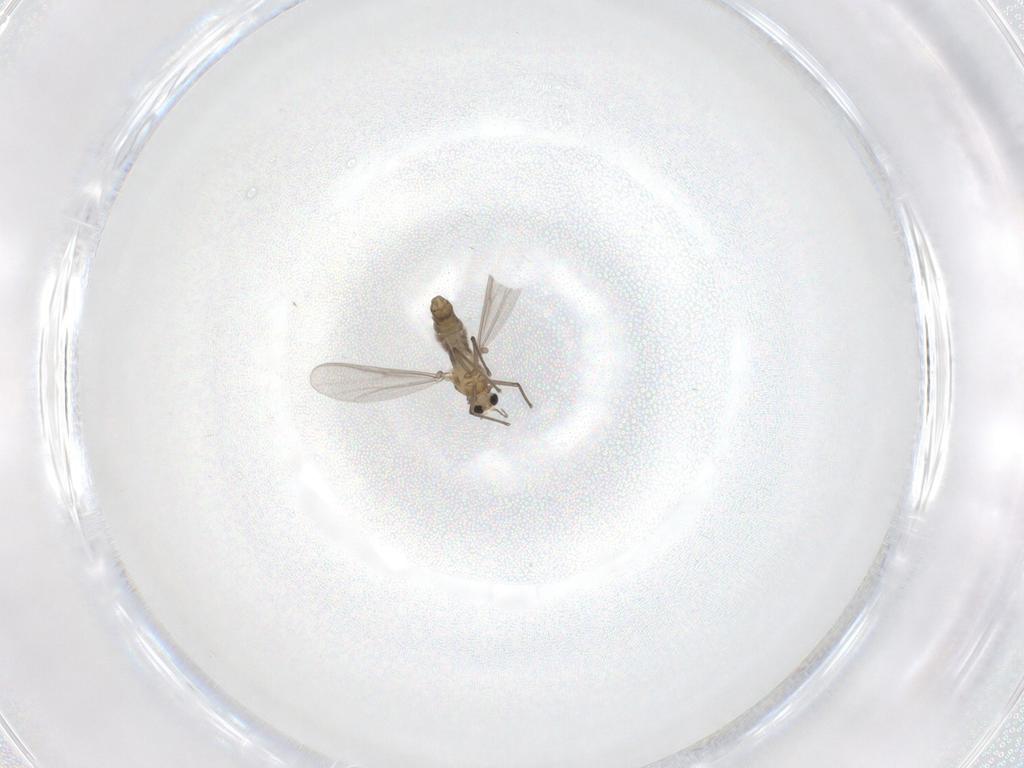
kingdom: Animalia
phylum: Arthropoda
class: Insecta
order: Diptera
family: Cecidomyiidae
